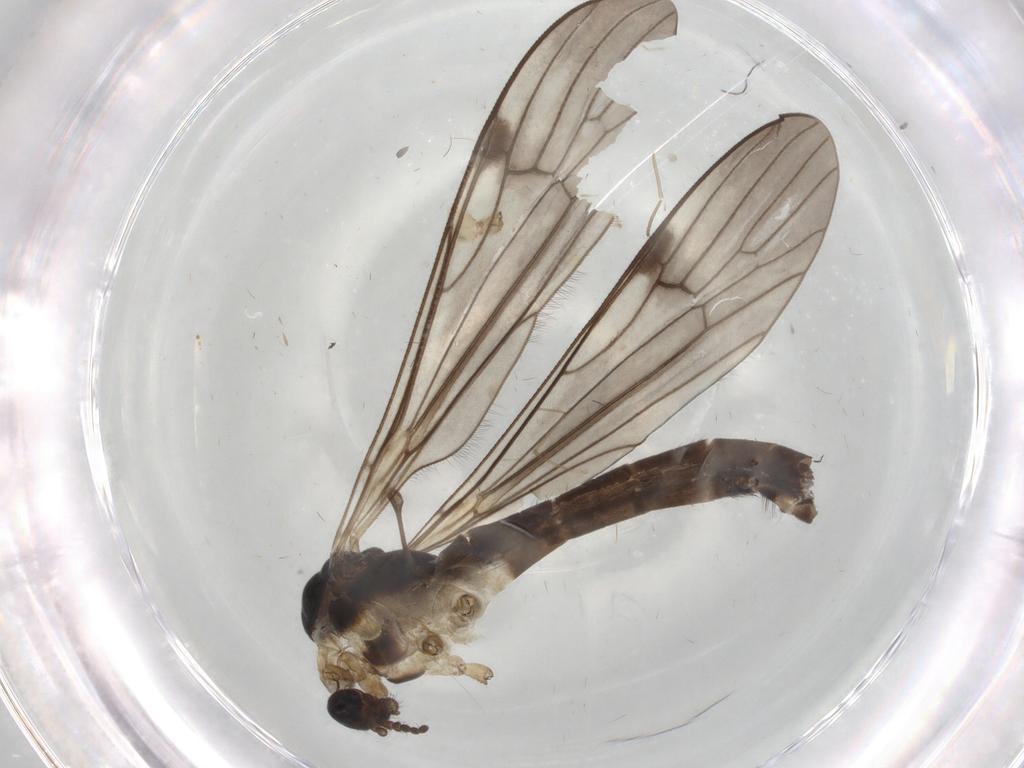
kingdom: Animalia
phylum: Arthropoda
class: Insecta
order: Diptera
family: Cecidomyiidae
